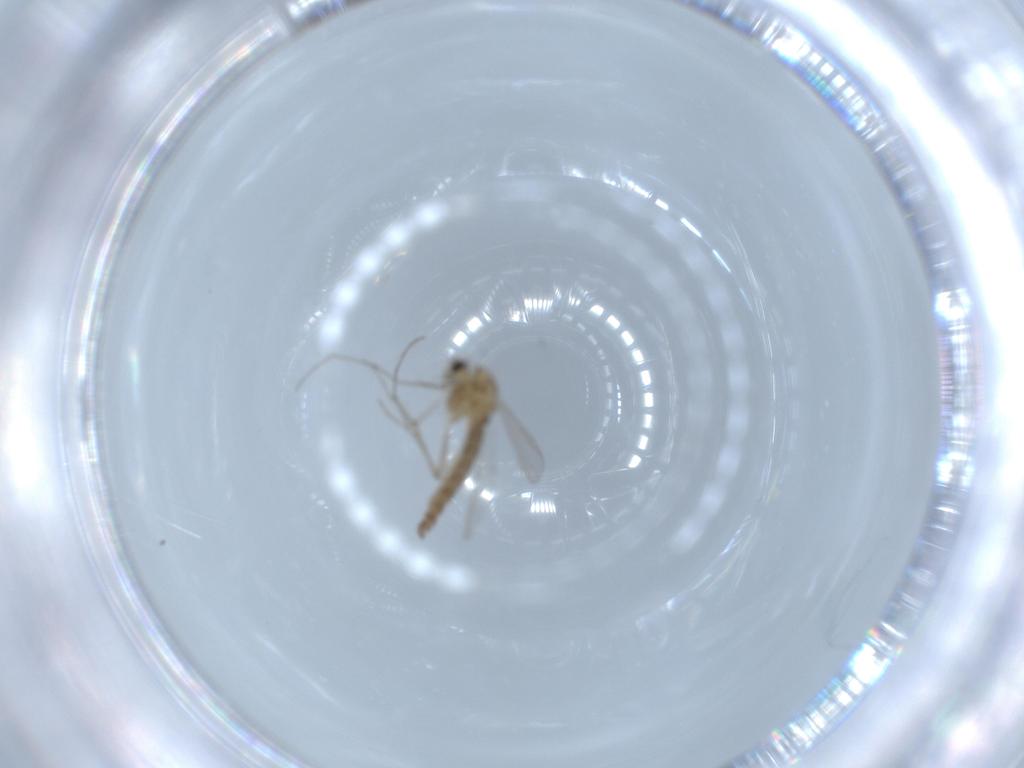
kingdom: Animalia
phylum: Arthropoda
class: Insecta
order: Diptera
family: Chironomidae
